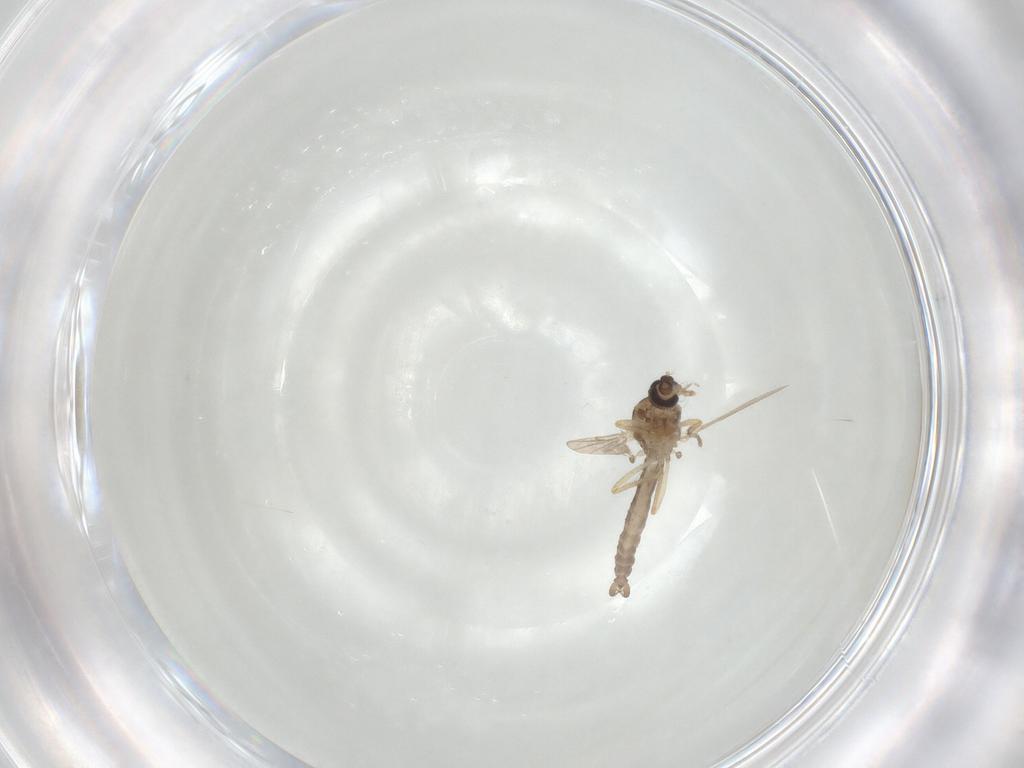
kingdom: Animalia
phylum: Arthropoda
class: Insecta
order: Diptera
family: Ceratopogonidae
